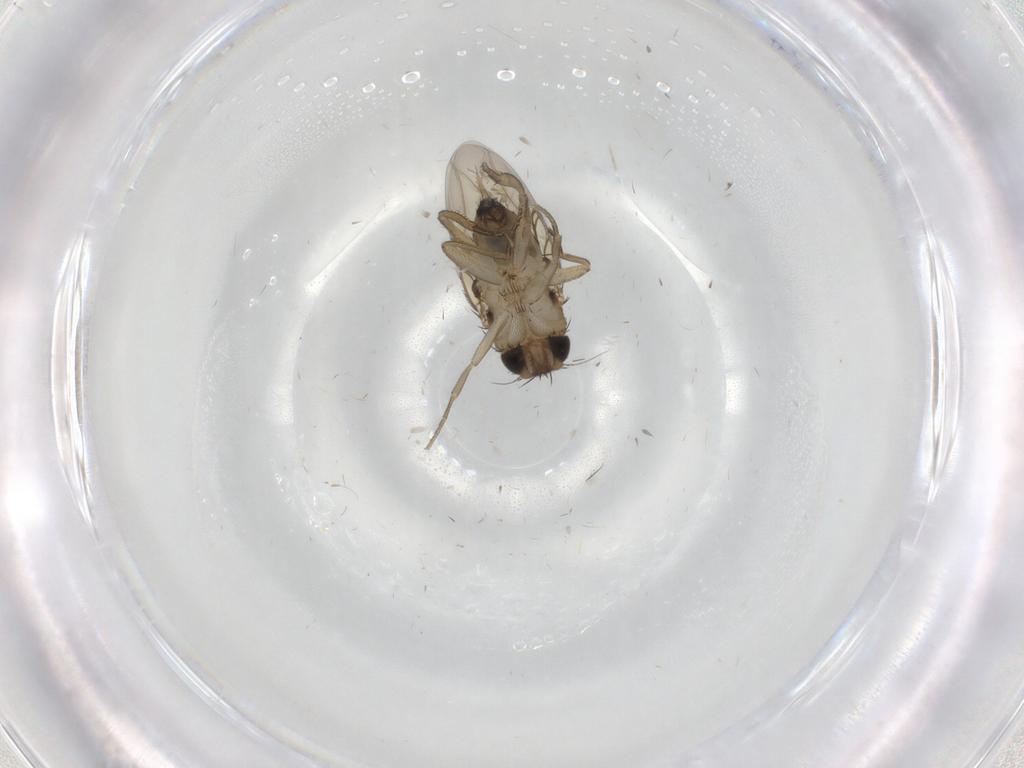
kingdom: Animalia
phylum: Arthropoda
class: Insecta
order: Diptera
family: Phoridae
